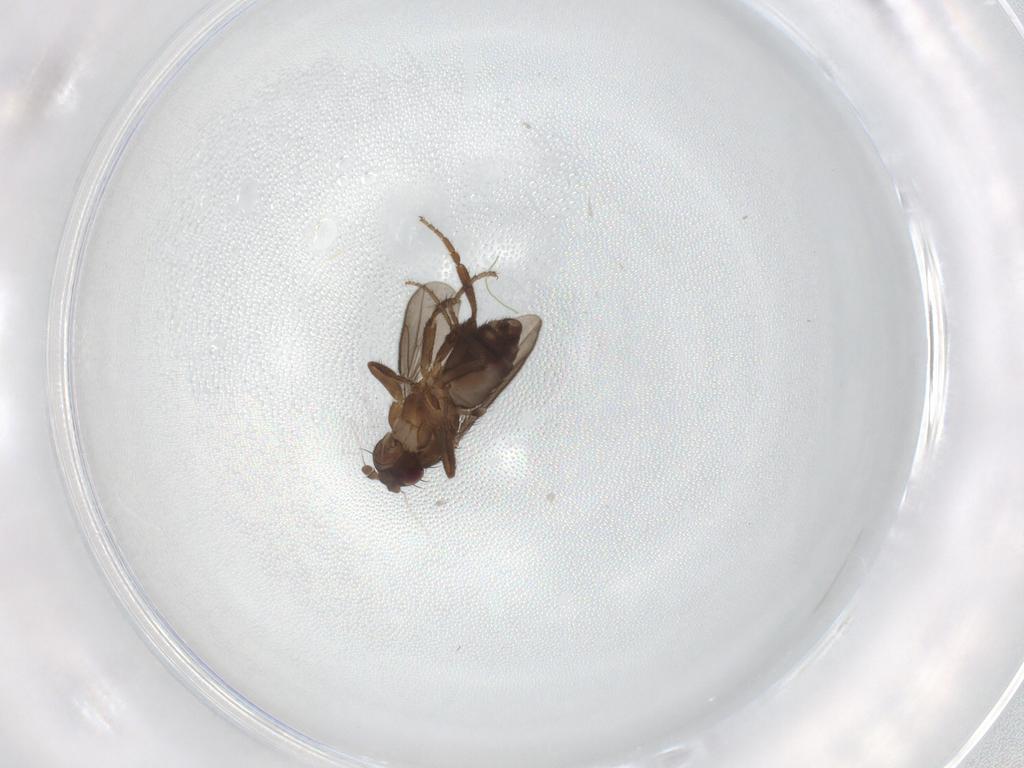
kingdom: Animalia
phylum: Arthropoda
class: Insecta
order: Diptera
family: Sphaeroceridae
